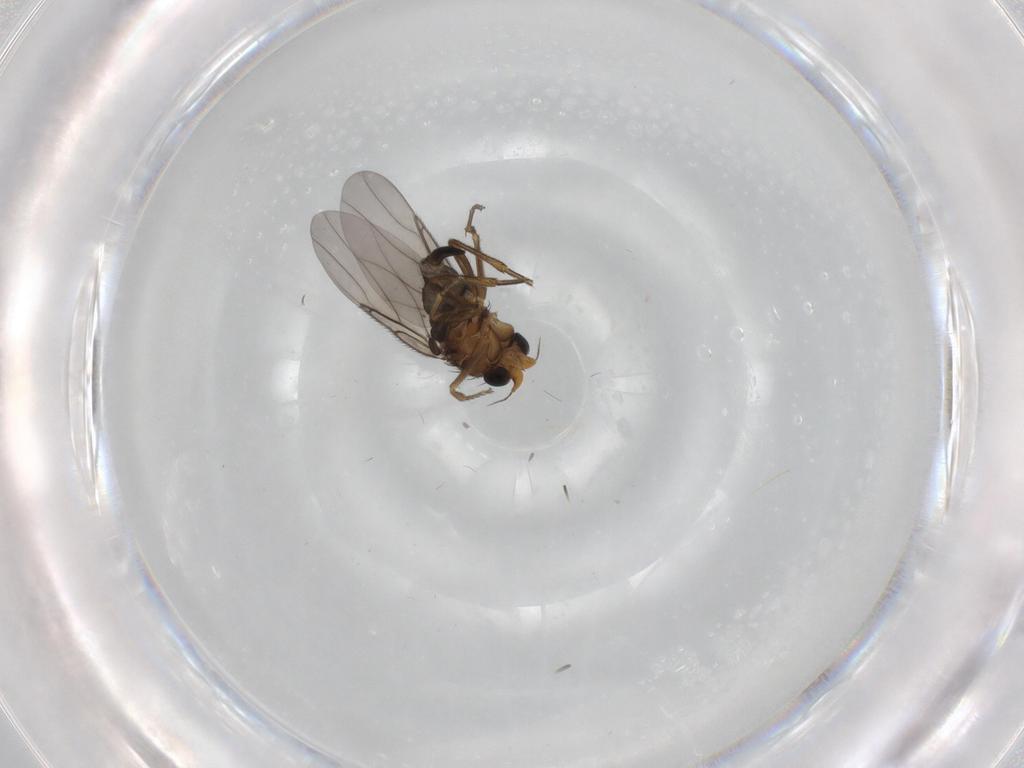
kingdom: Animalia
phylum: Arthropoda
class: Insecta
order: Diptera
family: Phoridae
